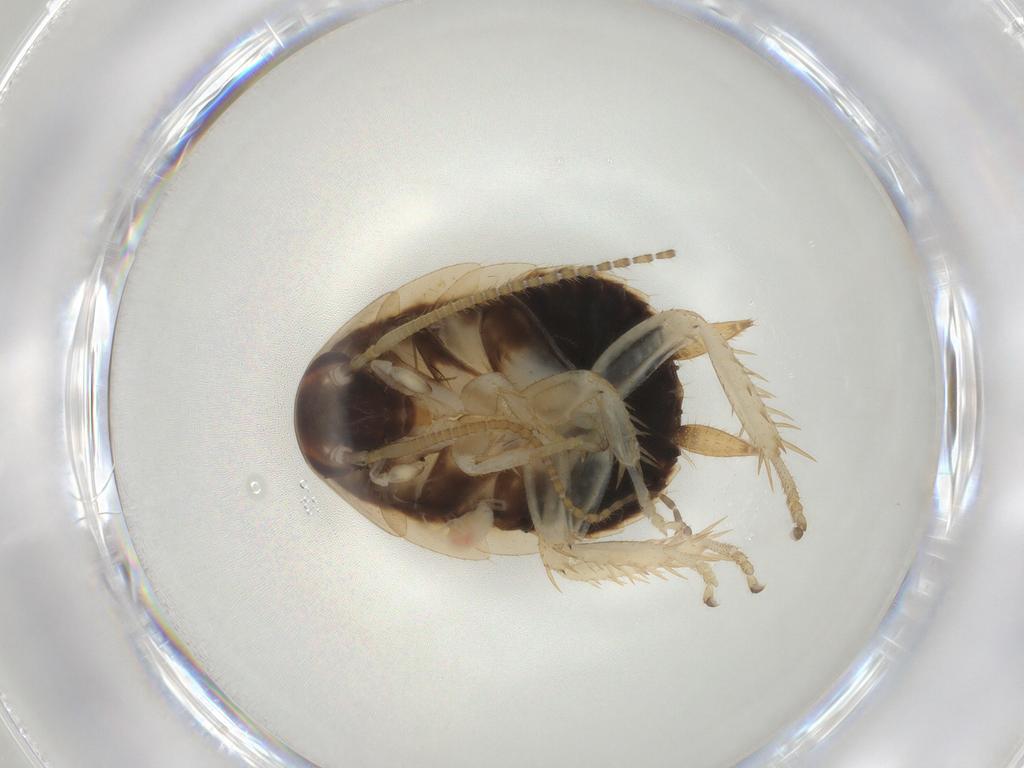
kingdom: Animalia
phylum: Arthropoda
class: Insecta
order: Blattodea
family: Ectobiidae
